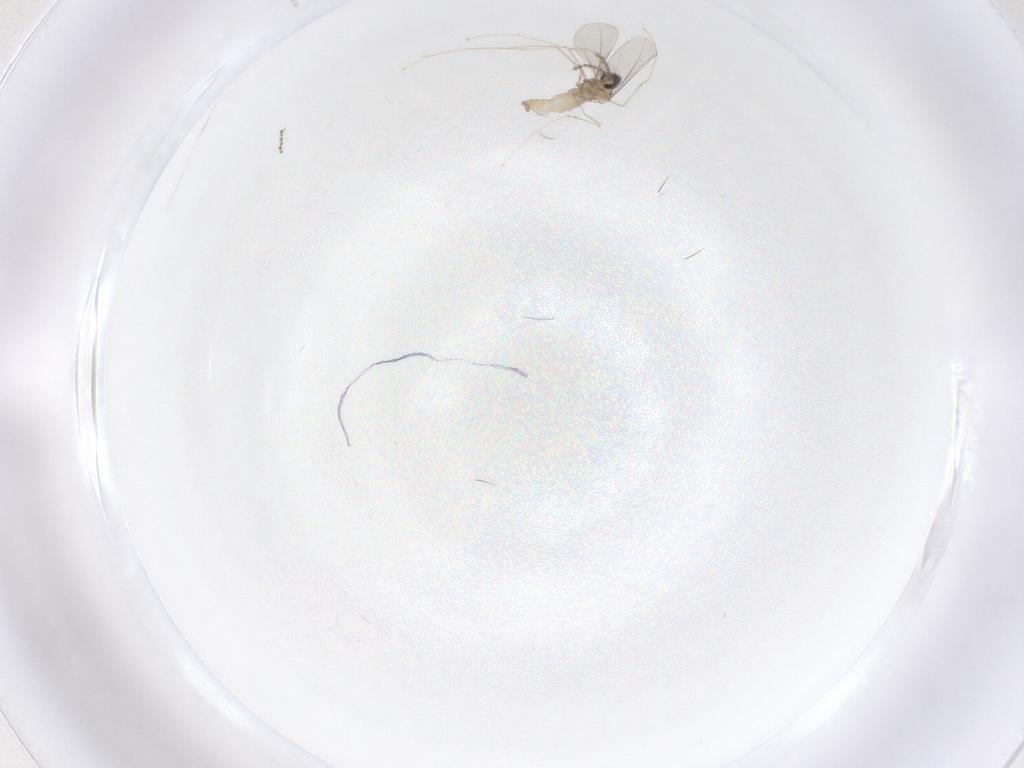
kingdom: Animalia
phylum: Arthropoda
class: Insecta
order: Diptera
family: Cecidomyiidae
